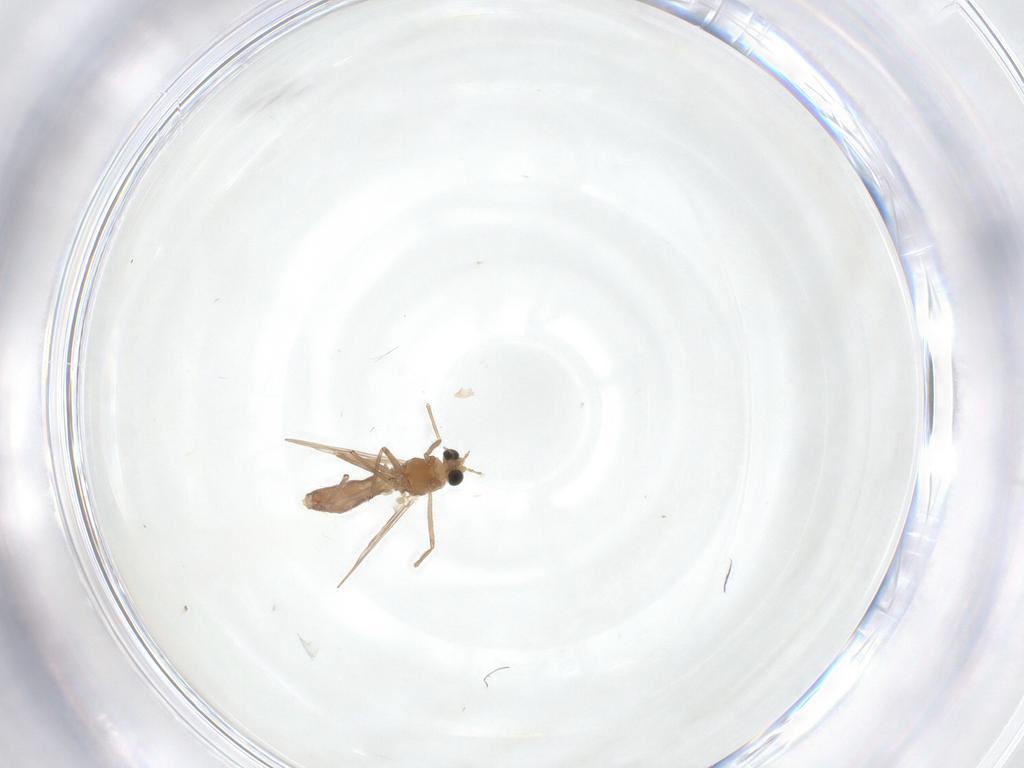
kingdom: Animalia
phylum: Arthropoda
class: Insecta
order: Diptera
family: Cecidomyiidae
